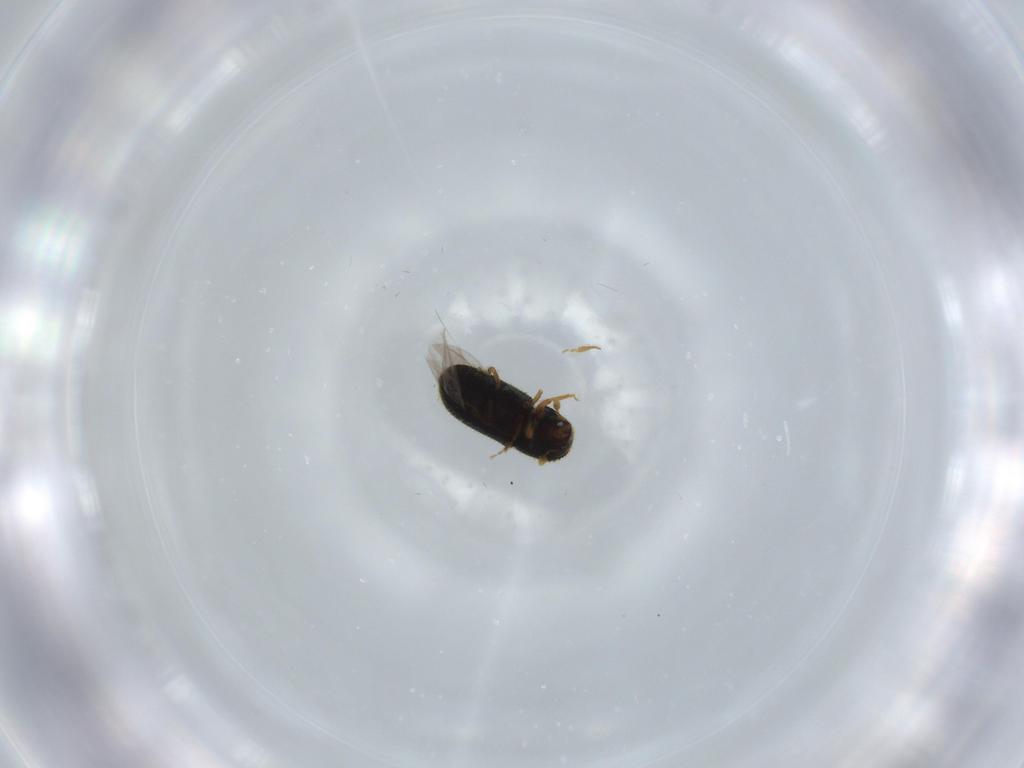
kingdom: Animalia
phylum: Arthropoda
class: Insecta
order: Coleoptera
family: Curculionidae
